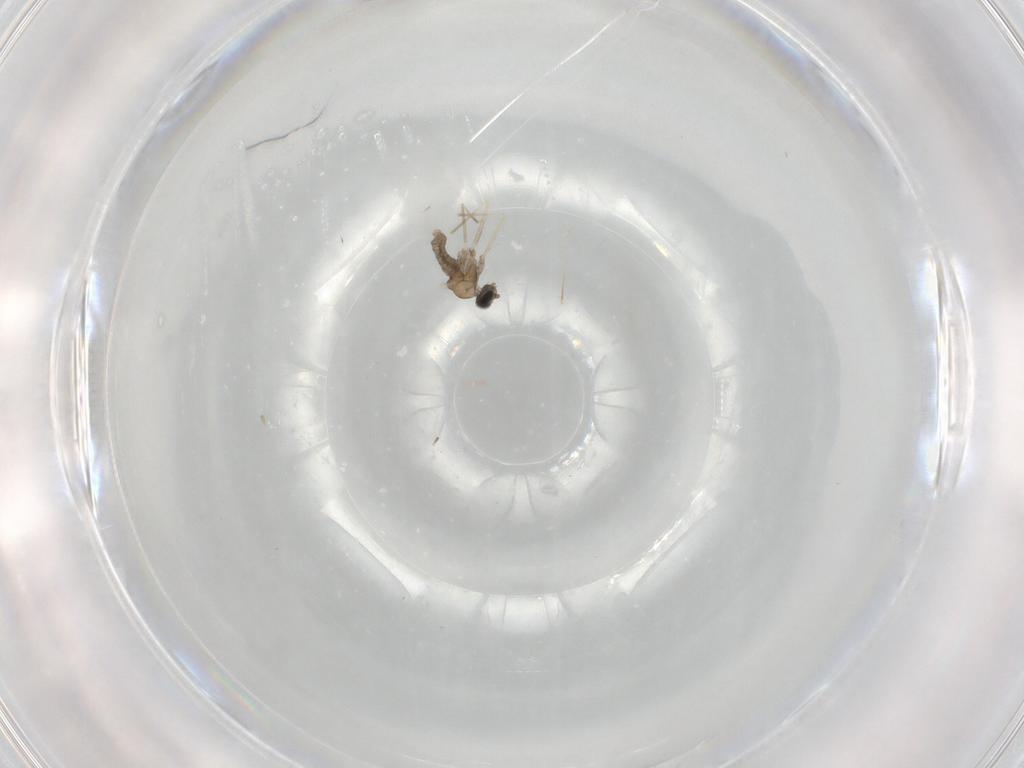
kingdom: Animalia
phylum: Arthropoda
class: Insecta
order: Diptera
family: Cecidomyiidae
